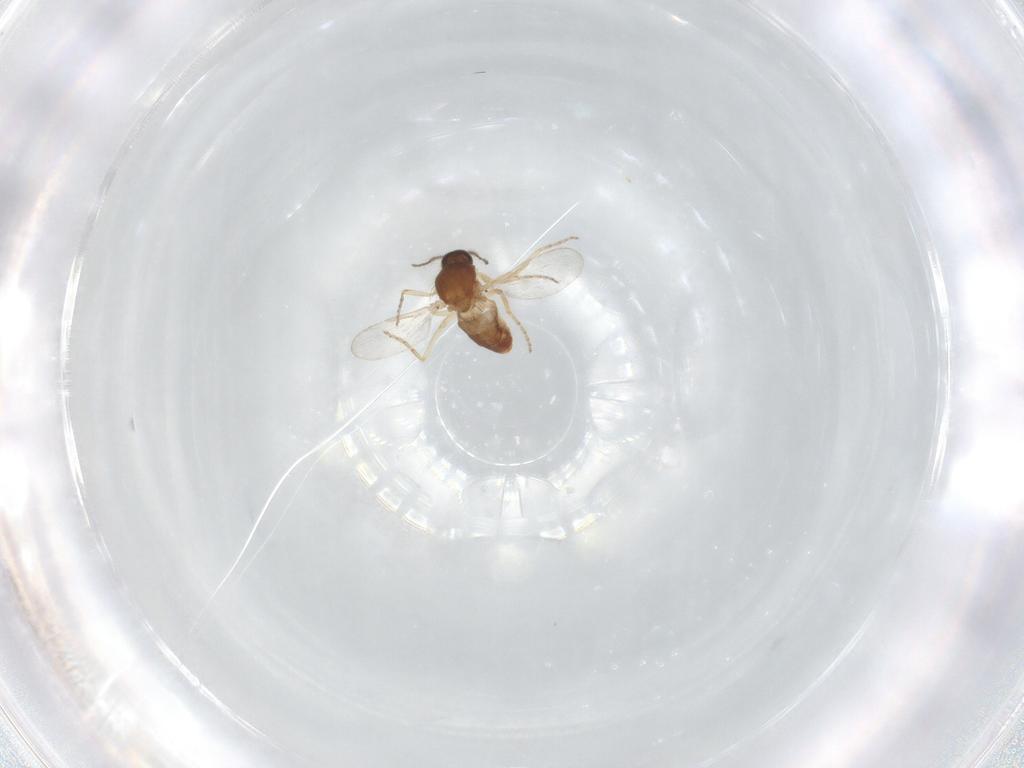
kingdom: Animalia
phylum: Arthropoda
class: Insecta
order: Diptera
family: Ceratopogonidae
